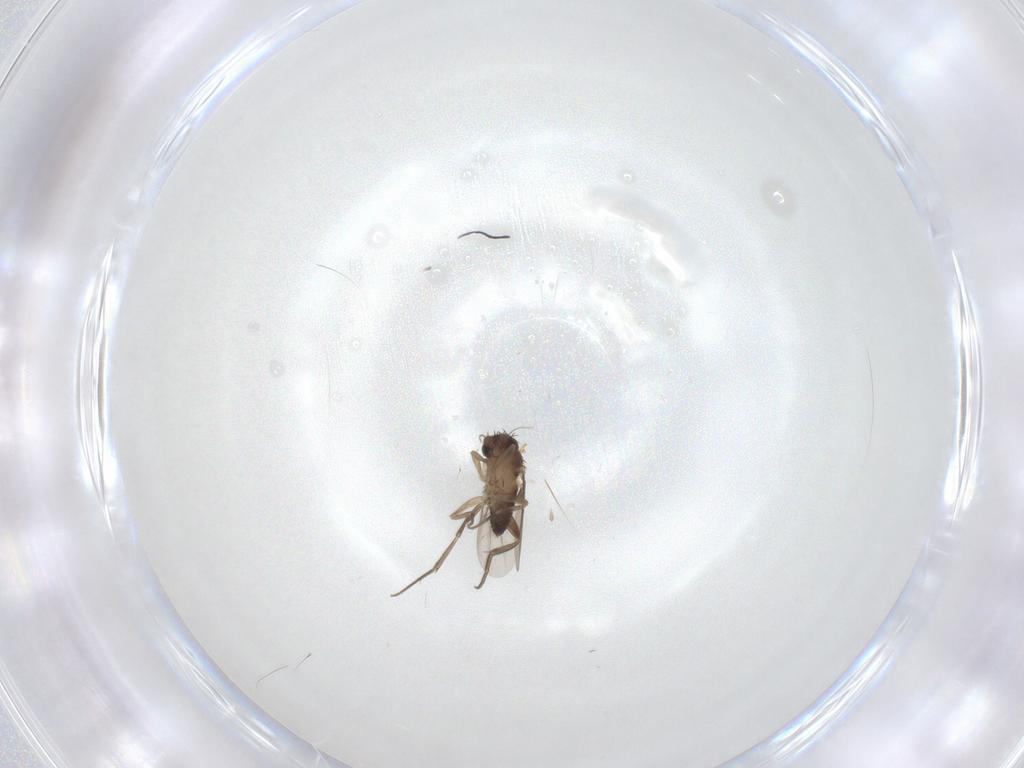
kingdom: Animalia
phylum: Arthropoda
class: Insecta
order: Diptera
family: Phoridae
